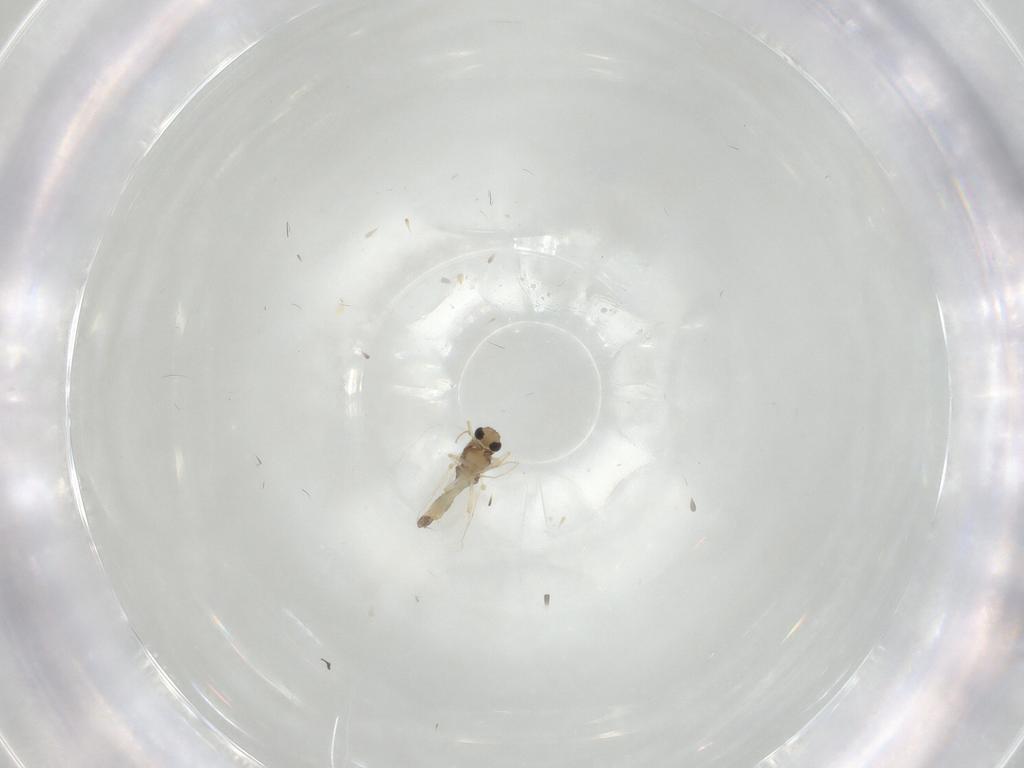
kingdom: Animalia
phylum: Arthropoda
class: Insecta
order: Diptera
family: Chironomidae
